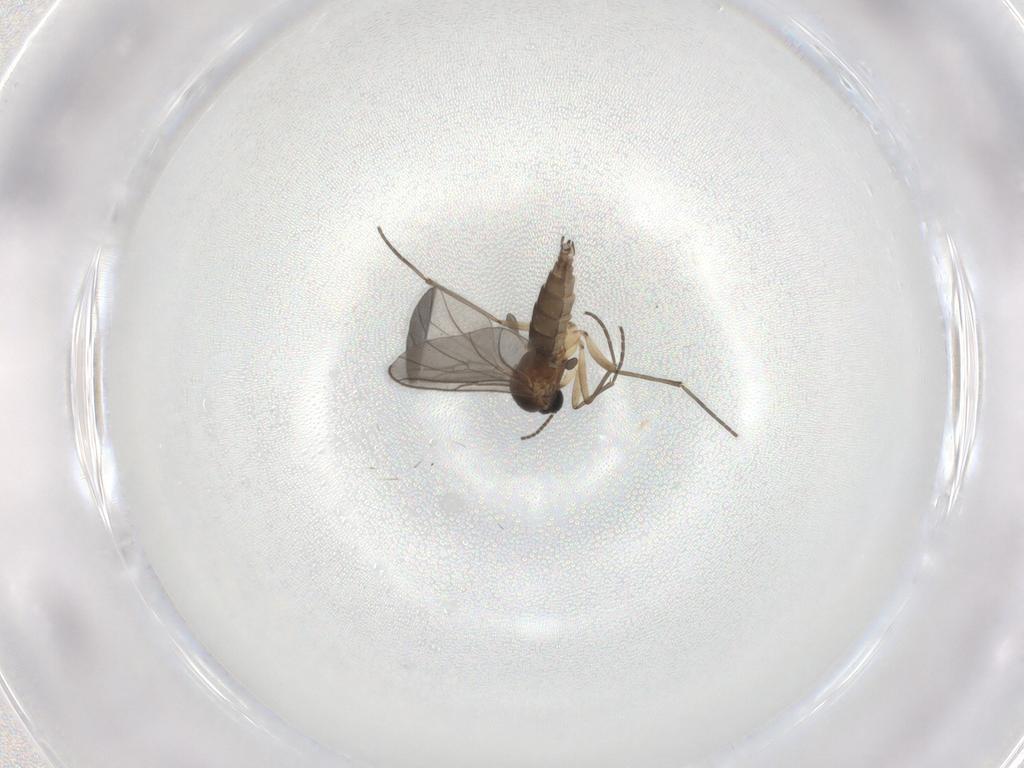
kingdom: Animalia
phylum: Arthropoda
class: Insecta
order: Diptera
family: Sciaridae
